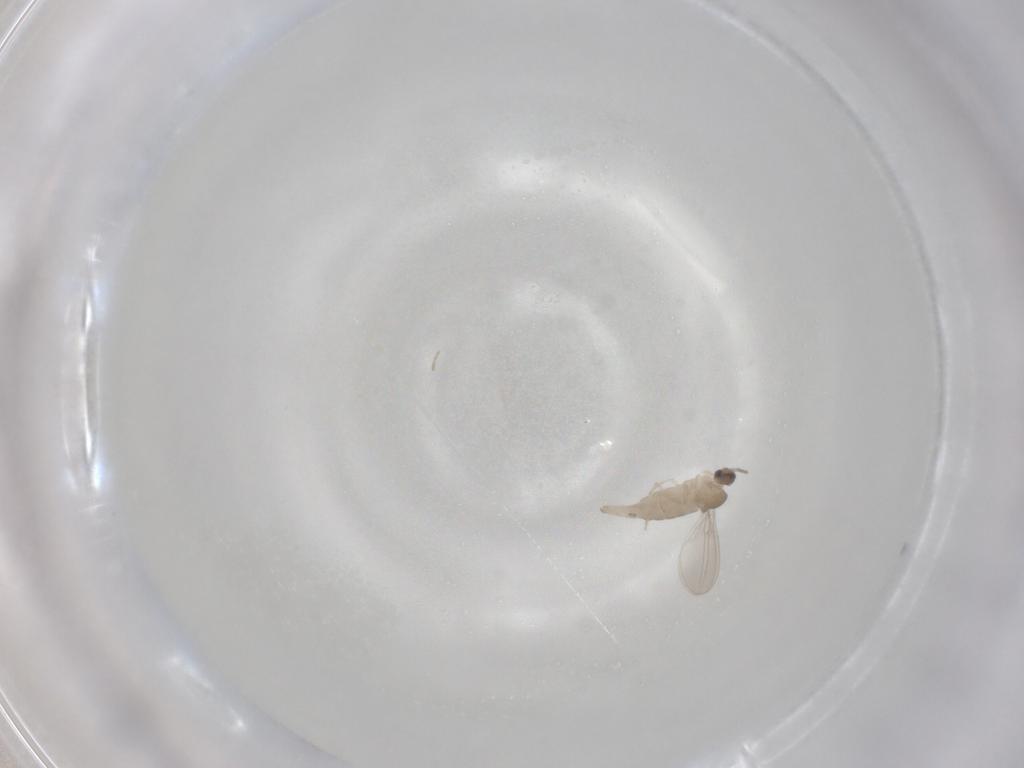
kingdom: Animalia
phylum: Arthropoda
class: Insecta
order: Diptera
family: Cecidomyiidae
